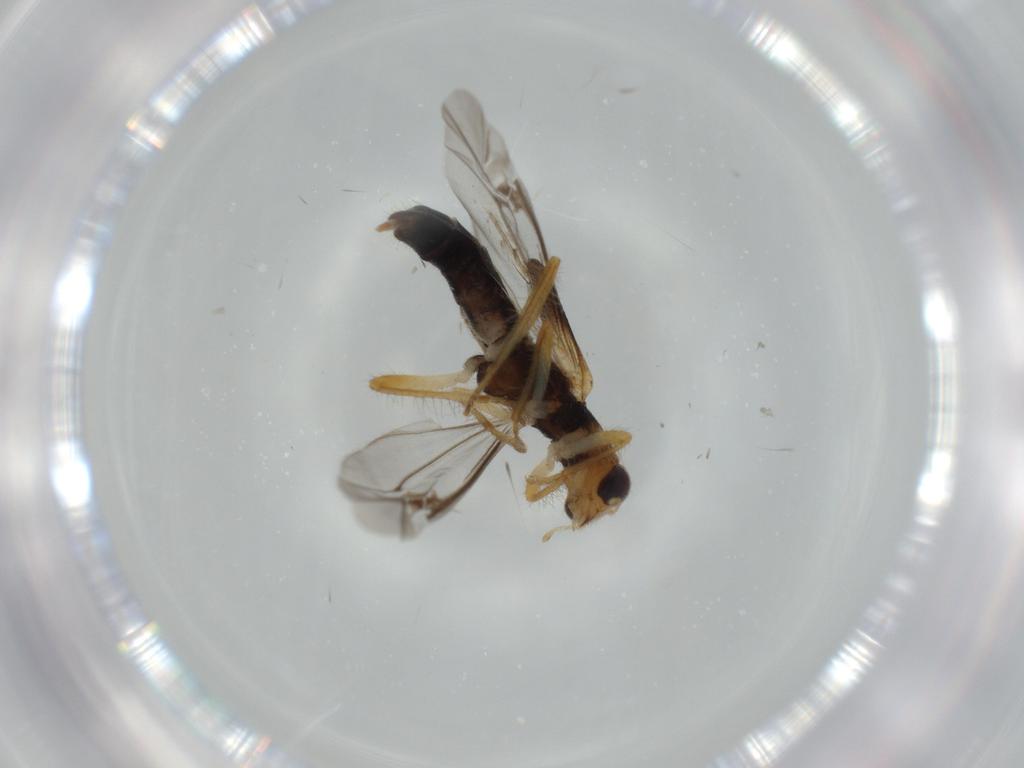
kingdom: Animalia
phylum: Arthropoda
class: Insecta
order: Coleoptera
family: Cleridae
